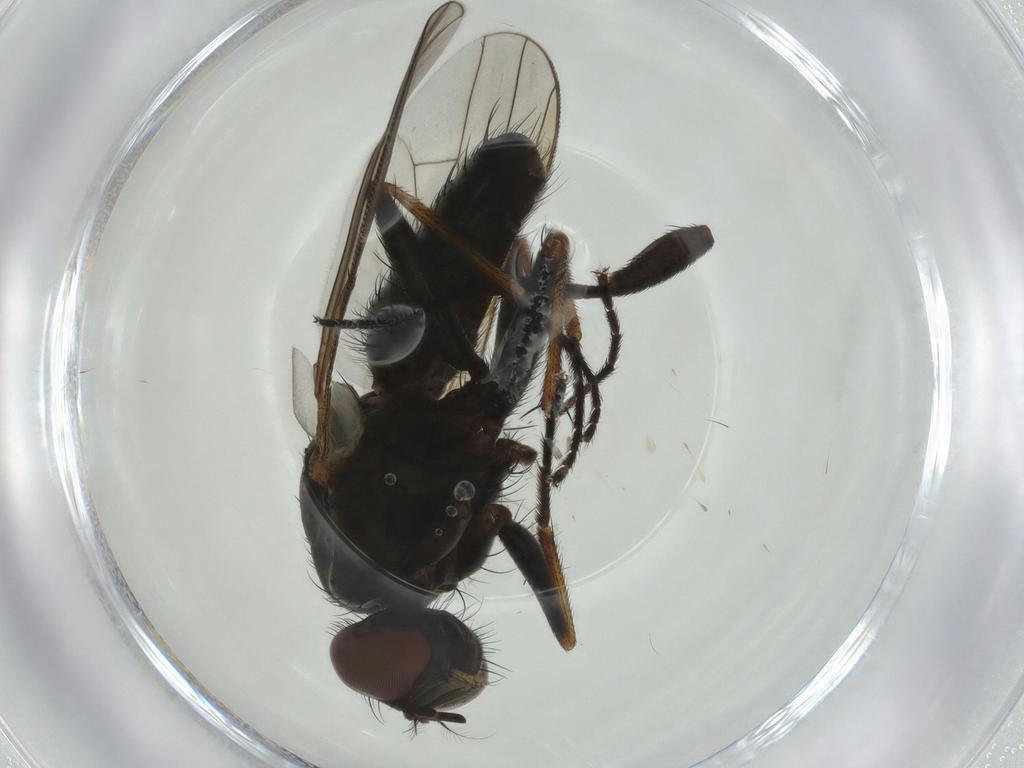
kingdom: Animalia
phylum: Arthropoda
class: Insecta
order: Diptera
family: Muscidae
